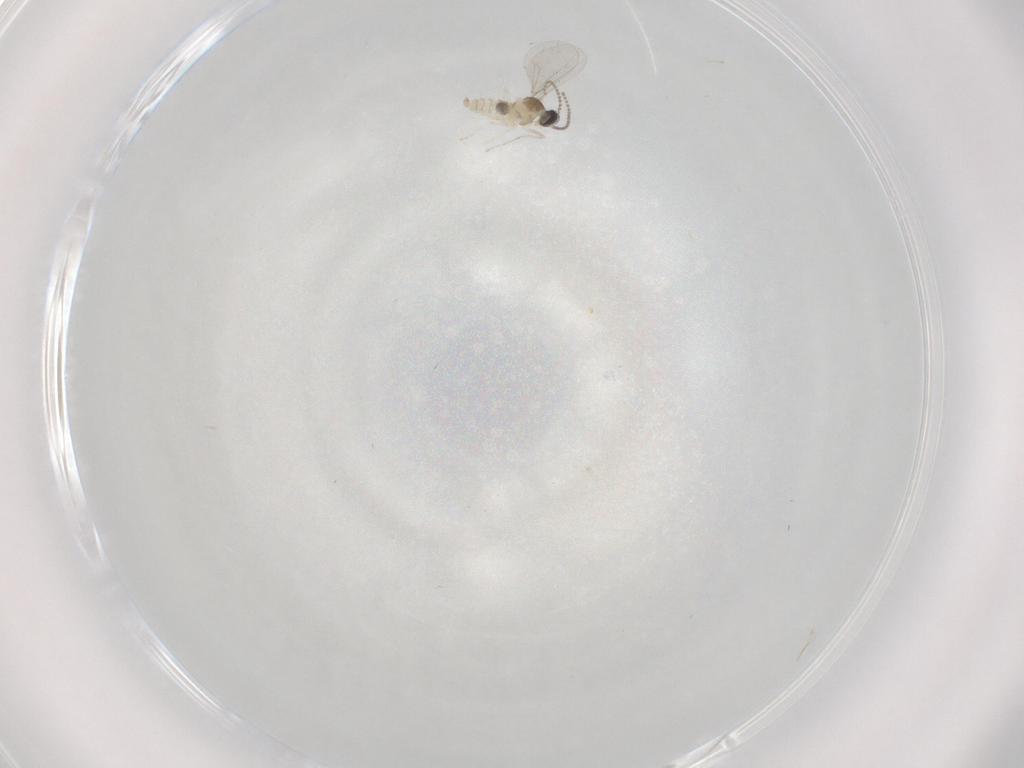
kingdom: Animalia
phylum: Arthropoda
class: Insecta
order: Diptera
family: Cecidomyiidae
